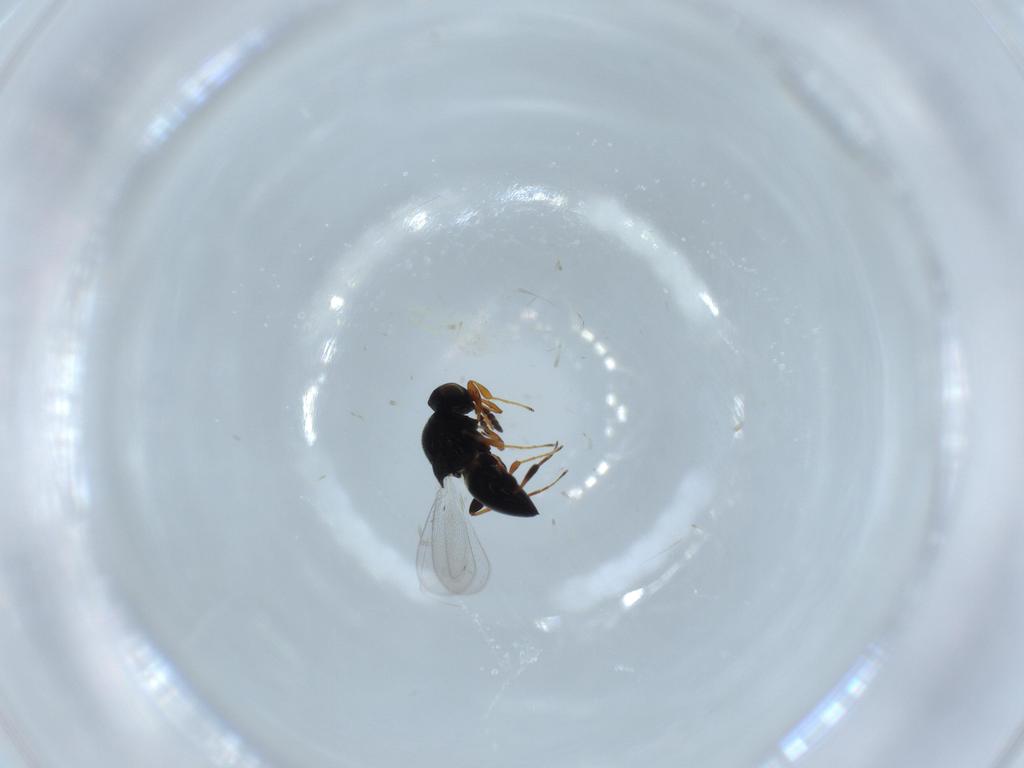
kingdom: Animalia
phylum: Arthropoda
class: Insecta
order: Hymenoptera
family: Platygastridae
